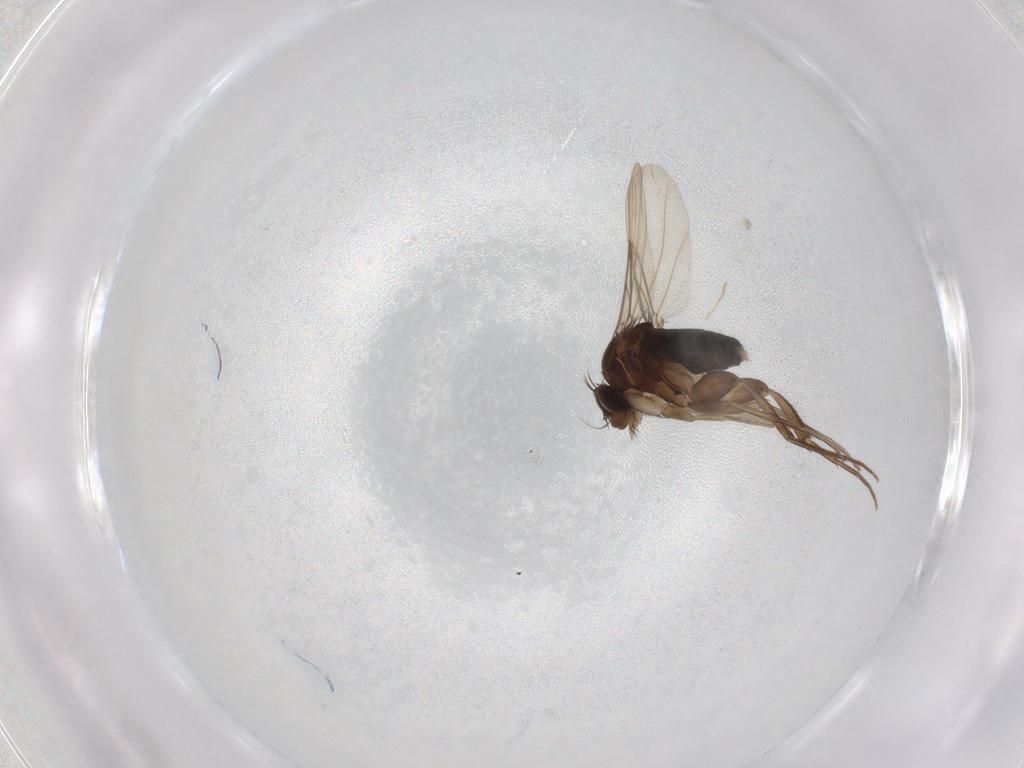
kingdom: Animalia
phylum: Arthropoda
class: Insecta
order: Diptera
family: Phoridae
